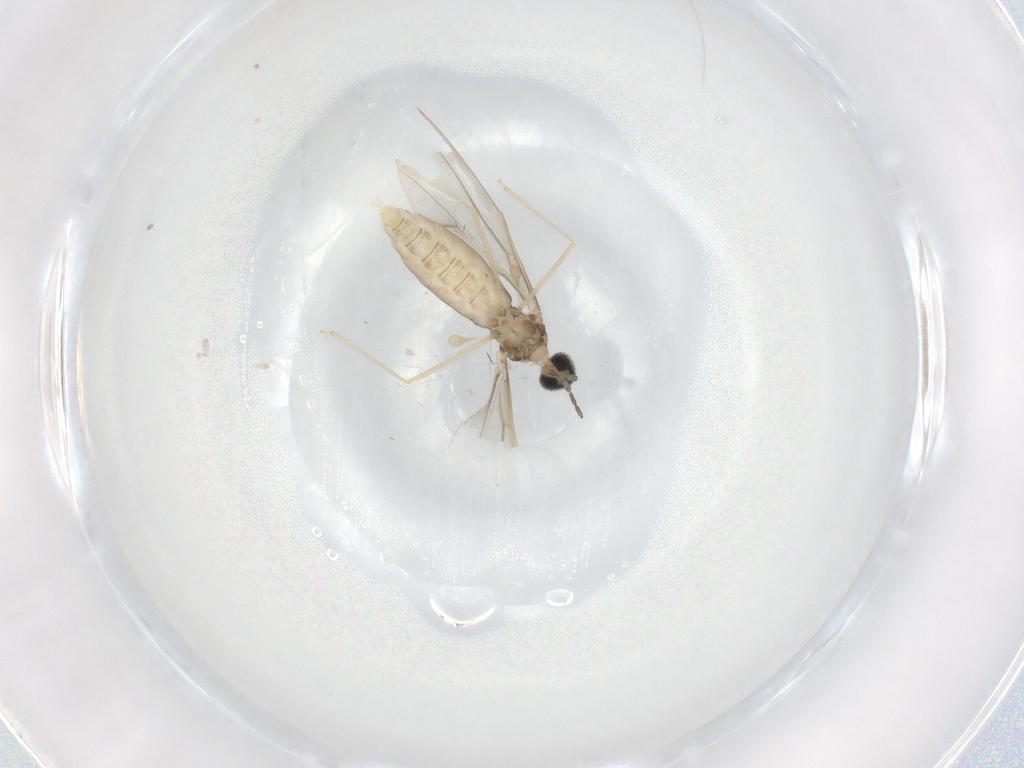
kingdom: Animalia
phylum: Arthropoda
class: Insecta
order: Diptera
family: Cecidomyiidae
